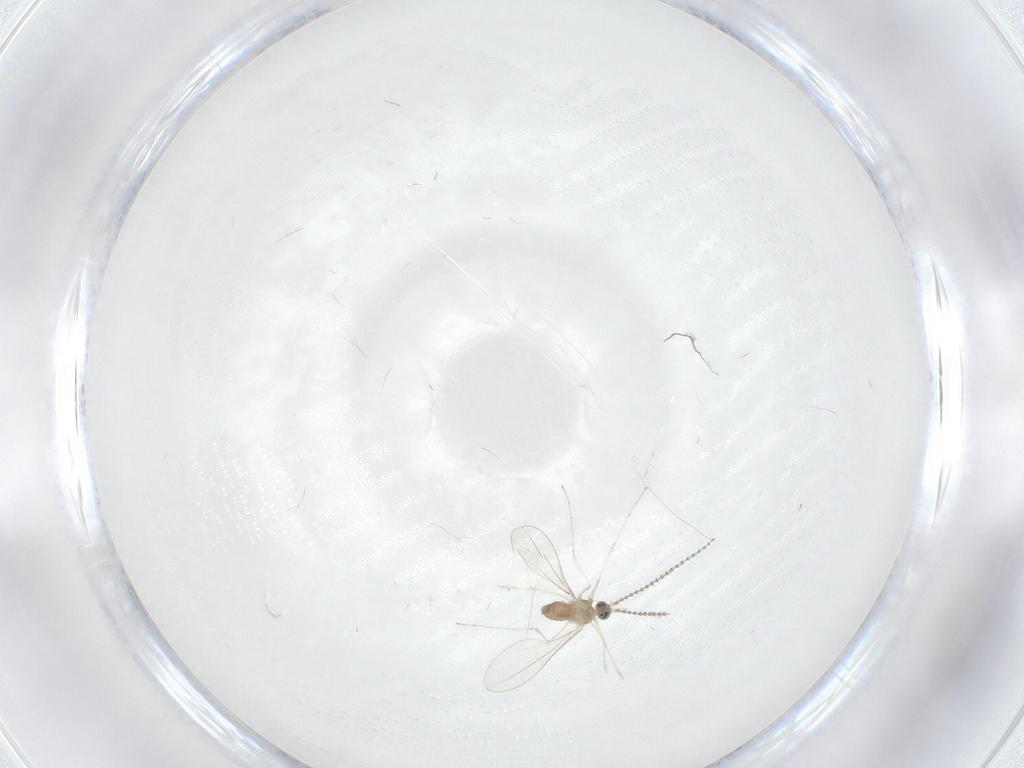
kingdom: Animalia
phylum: Arthropoda
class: Insecta
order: Diptera
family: Cecidomyiidae
